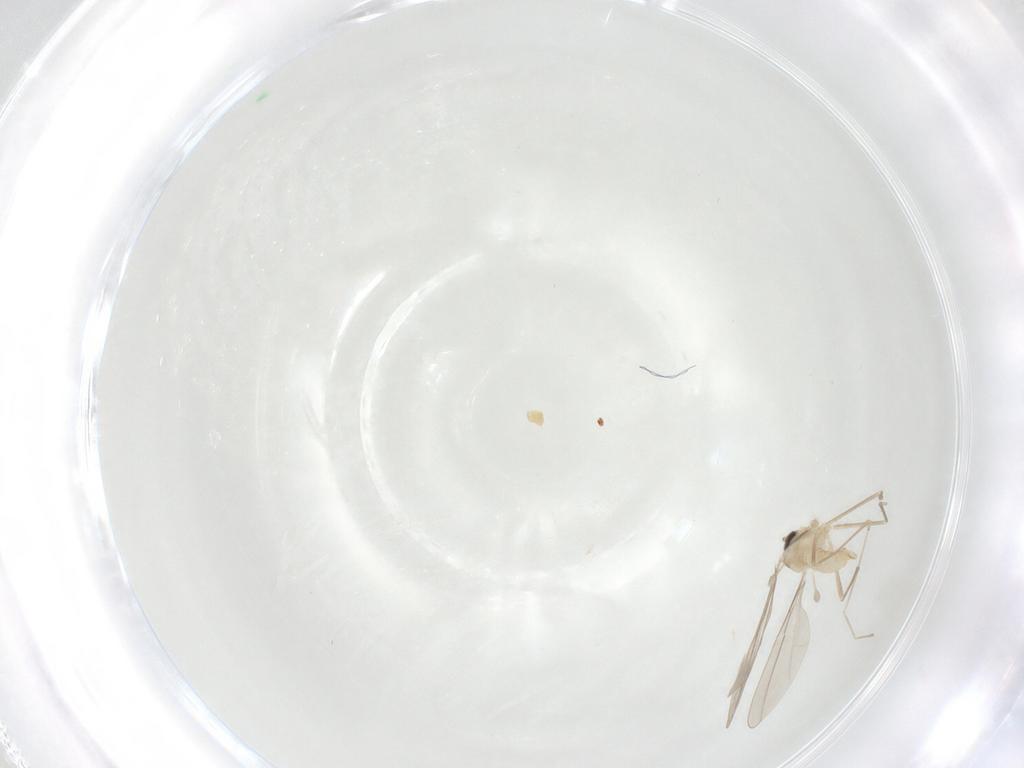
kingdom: Animalia
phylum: Arthropoda
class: Insecta
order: Diptera
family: Cecidomyiidae
